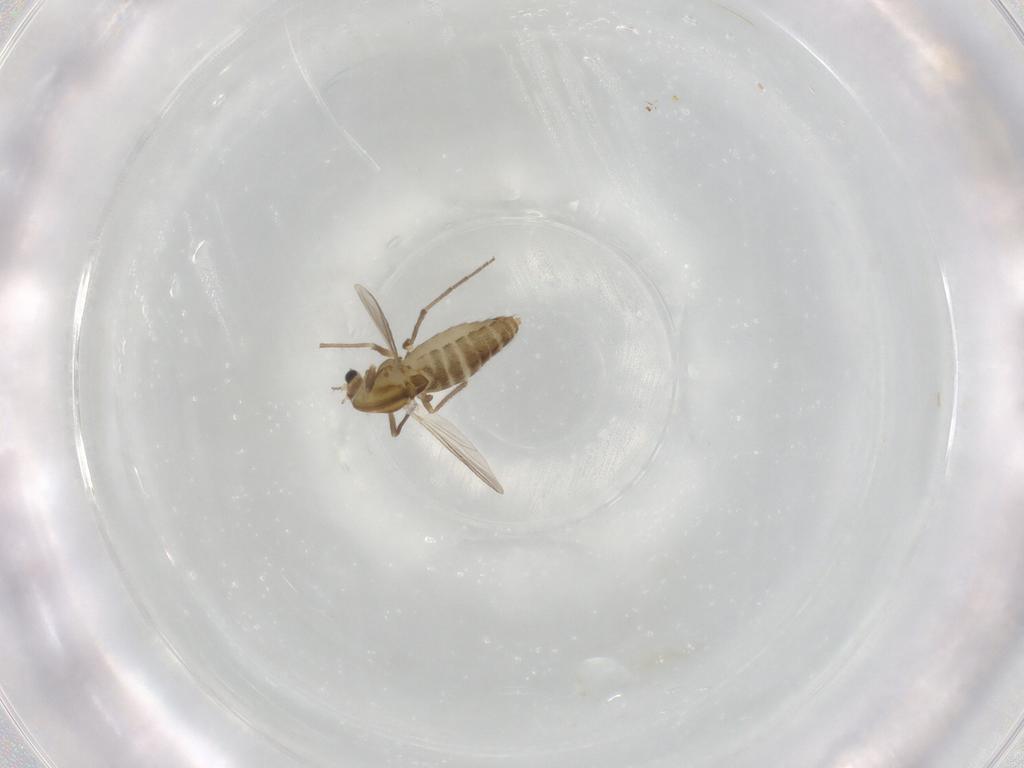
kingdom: Animalia
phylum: Arthropoda
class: Insecta
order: Diptera
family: Chironomidae
